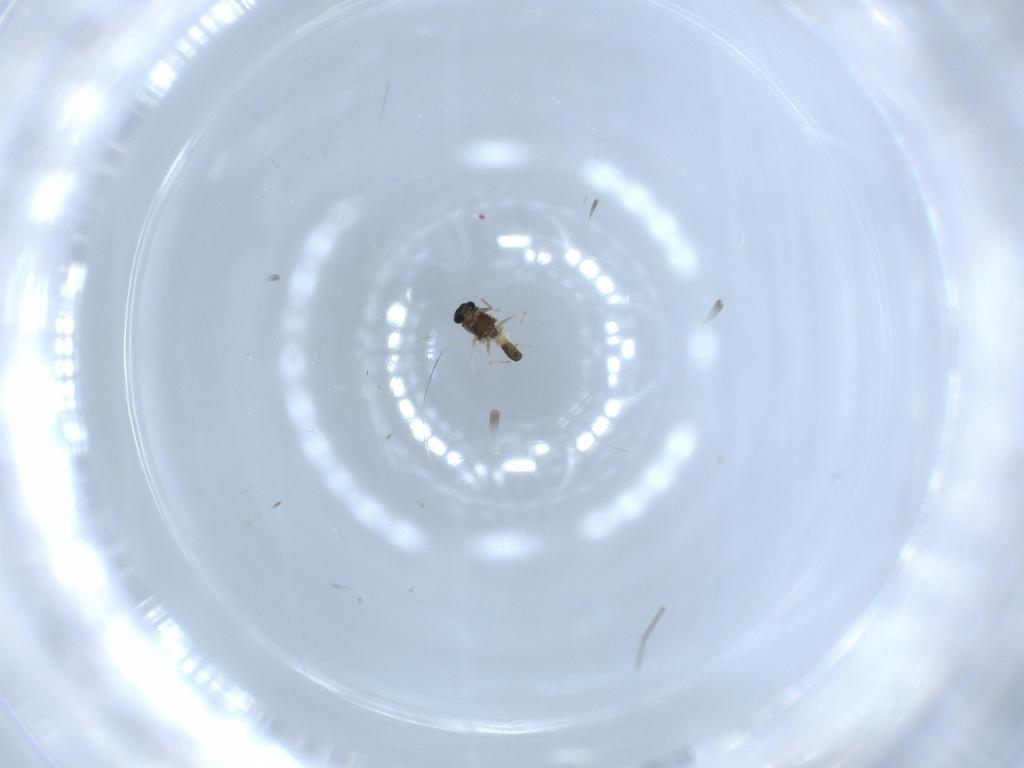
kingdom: Animalia
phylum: Arthropoda
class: Insecta
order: Diptera
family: Chironomidae
